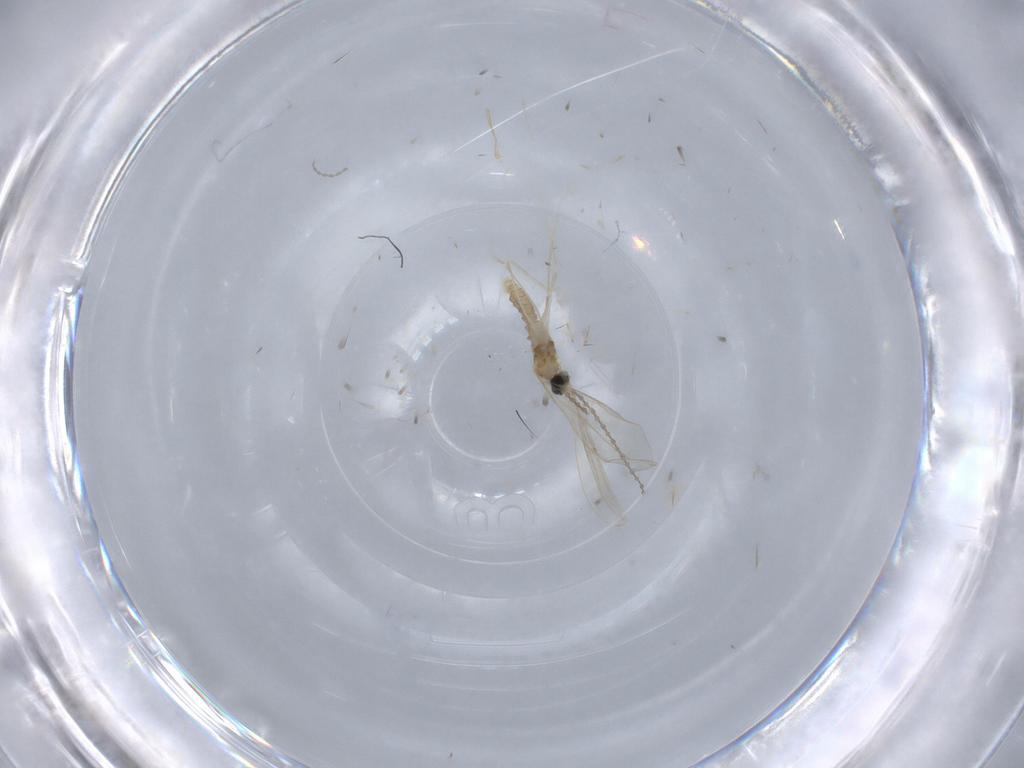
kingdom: Animalia
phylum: Arthropoda
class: Insecta
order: Diptera
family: Cecidomyiidae
